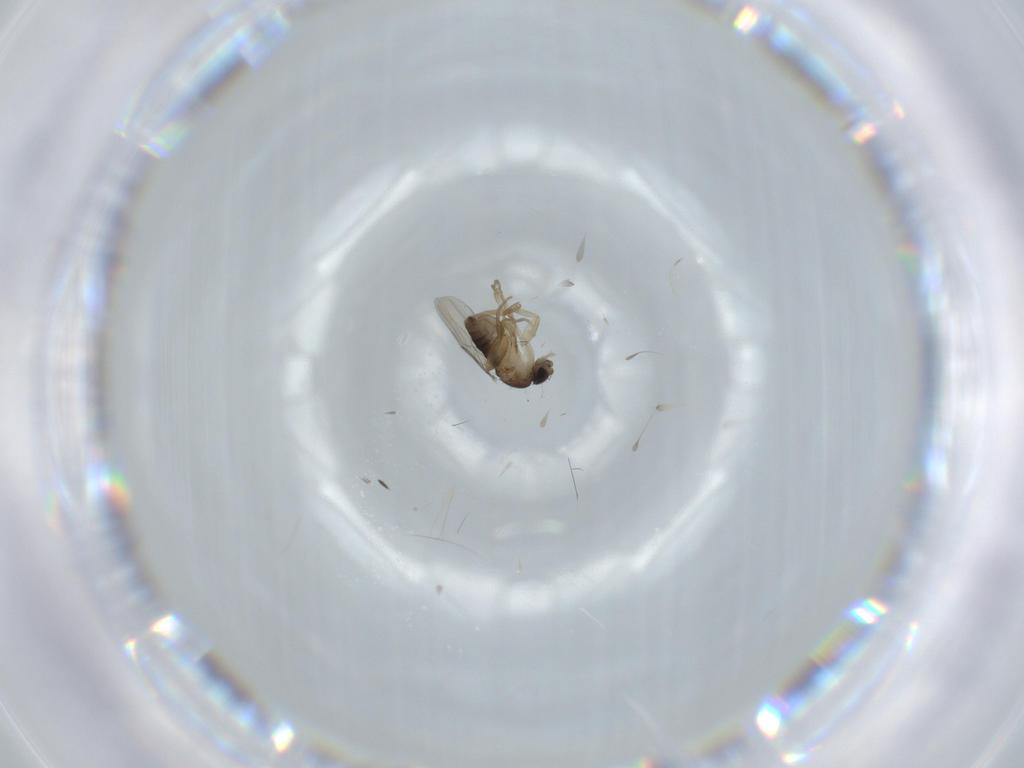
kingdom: Animalia
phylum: Arthropoda
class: Insecta
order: Diptera
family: Phoridae
